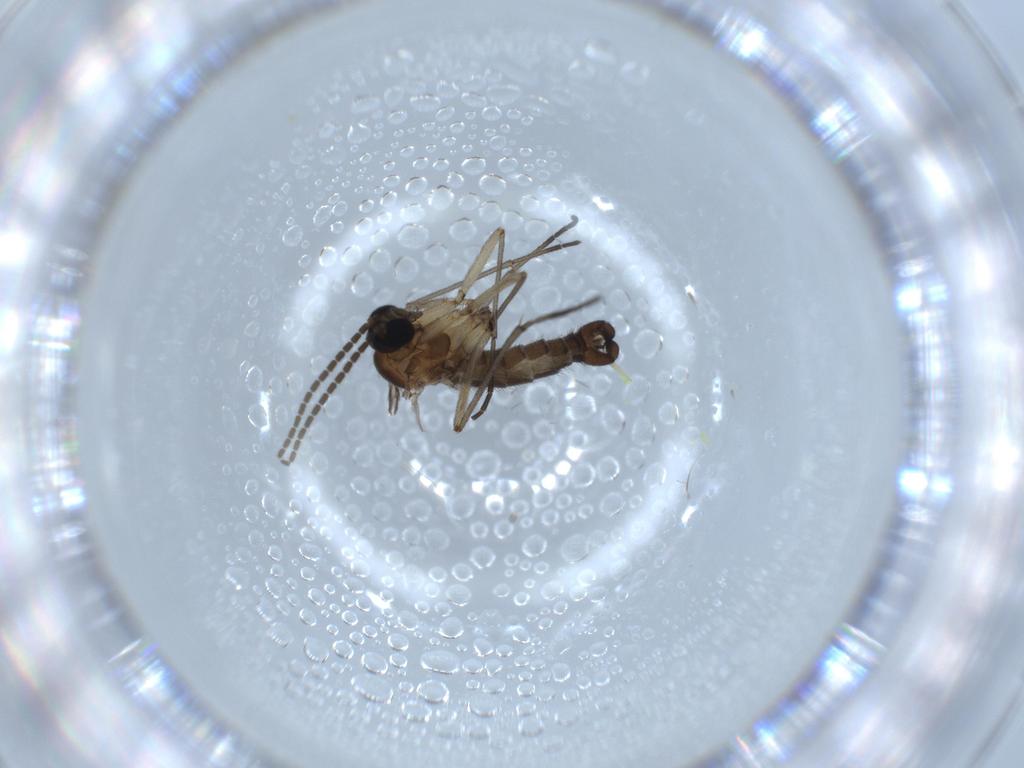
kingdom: Animalia
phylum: Arthropoda
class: Insecta
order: Diptera
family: Sciaridae
